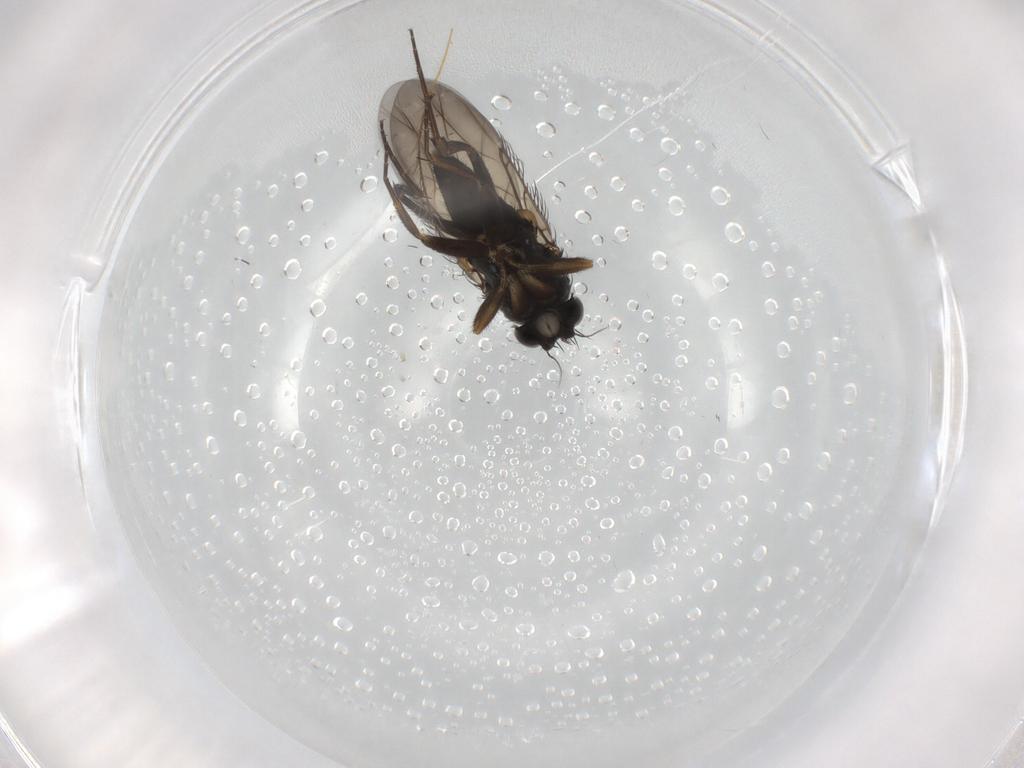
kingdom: Animalia
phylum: Arthropoda
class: Insecta
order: Diptera
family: Phoridae
